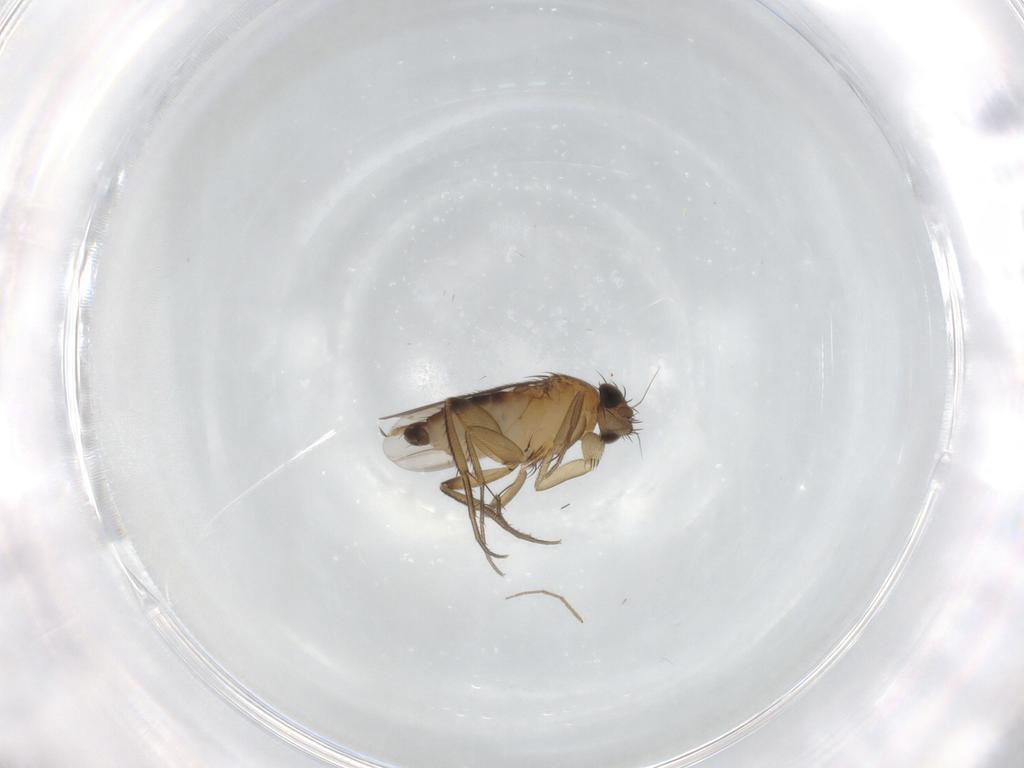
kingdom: Animalia
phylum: Arthropoda
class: Insecta
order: Diptera
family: Phoridae
